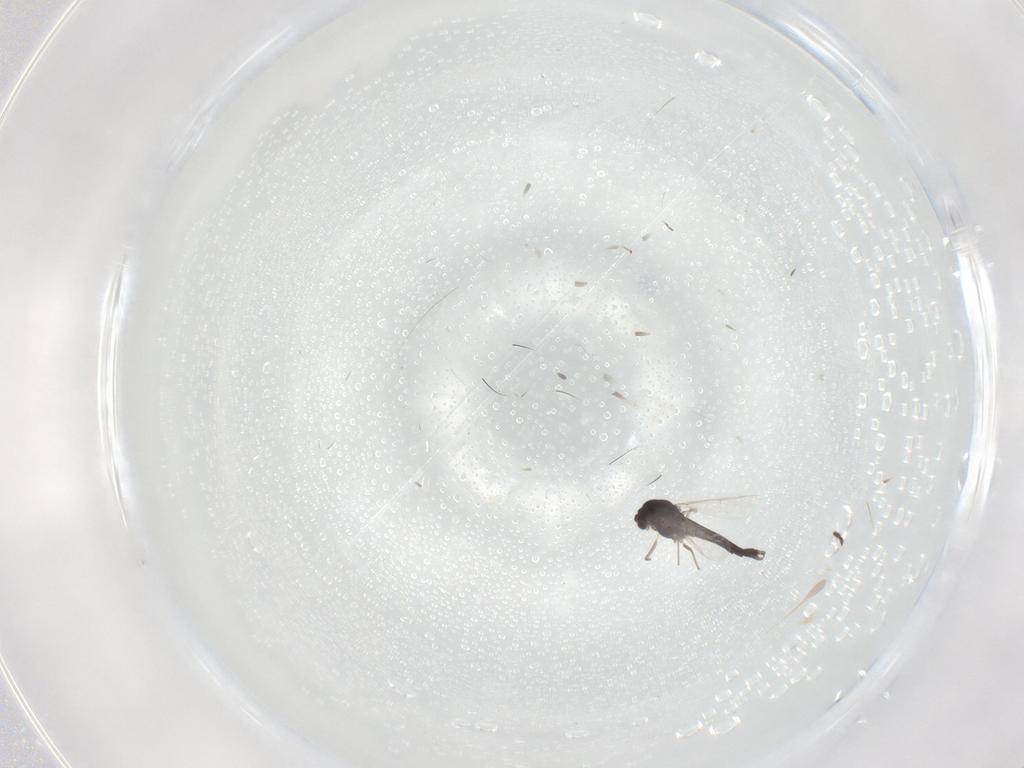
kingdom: Animalia
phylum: Arthropoda
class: Insecta
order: Diptera
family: Chironomidae
